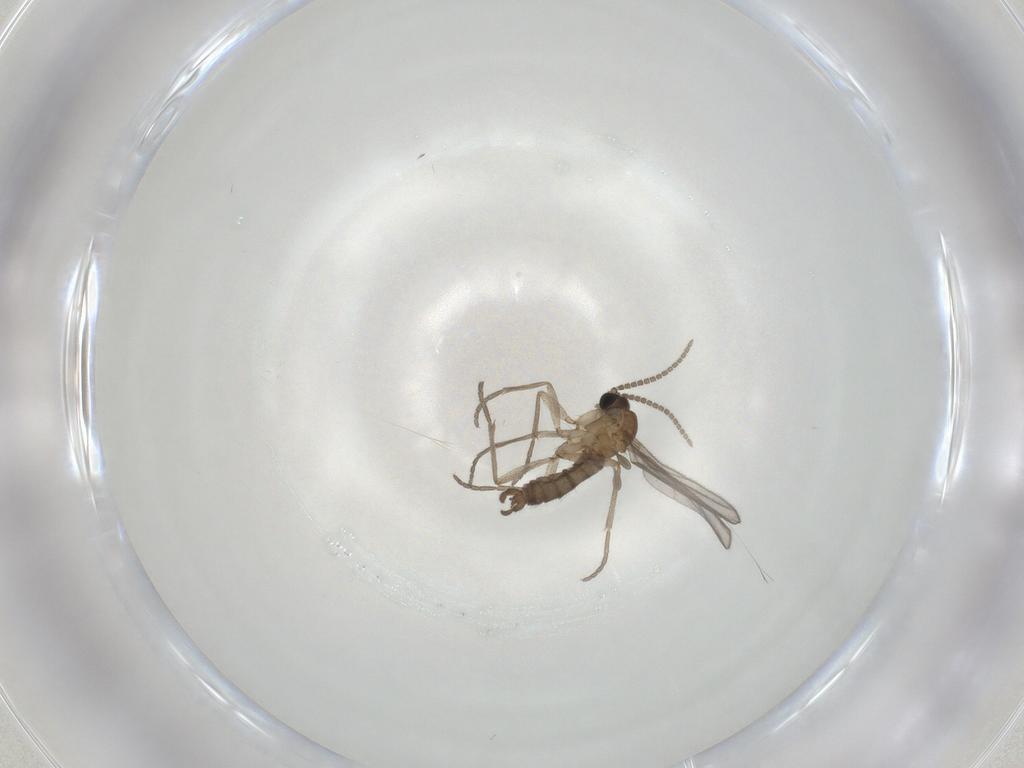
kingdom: Animalia
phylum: Arthropoda
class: Insecta
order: Diptera
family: Sciaridae
